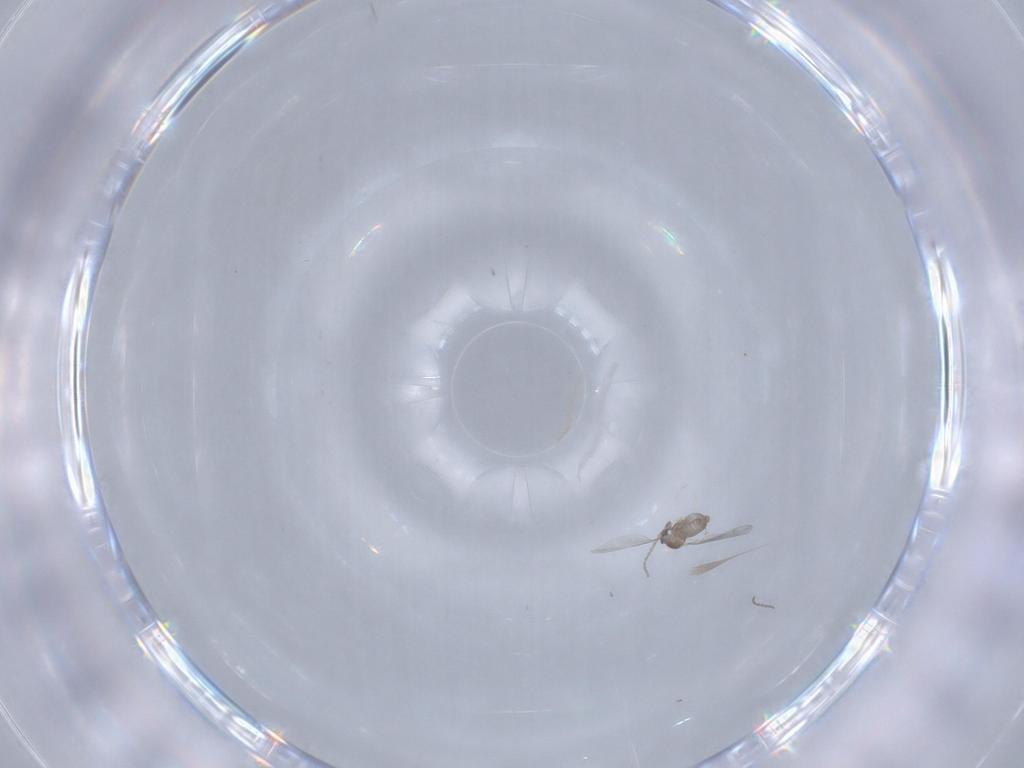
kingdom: Animalia
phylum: Arthropoda
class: Insecta
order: Diptera
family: Cecidomyiidae
